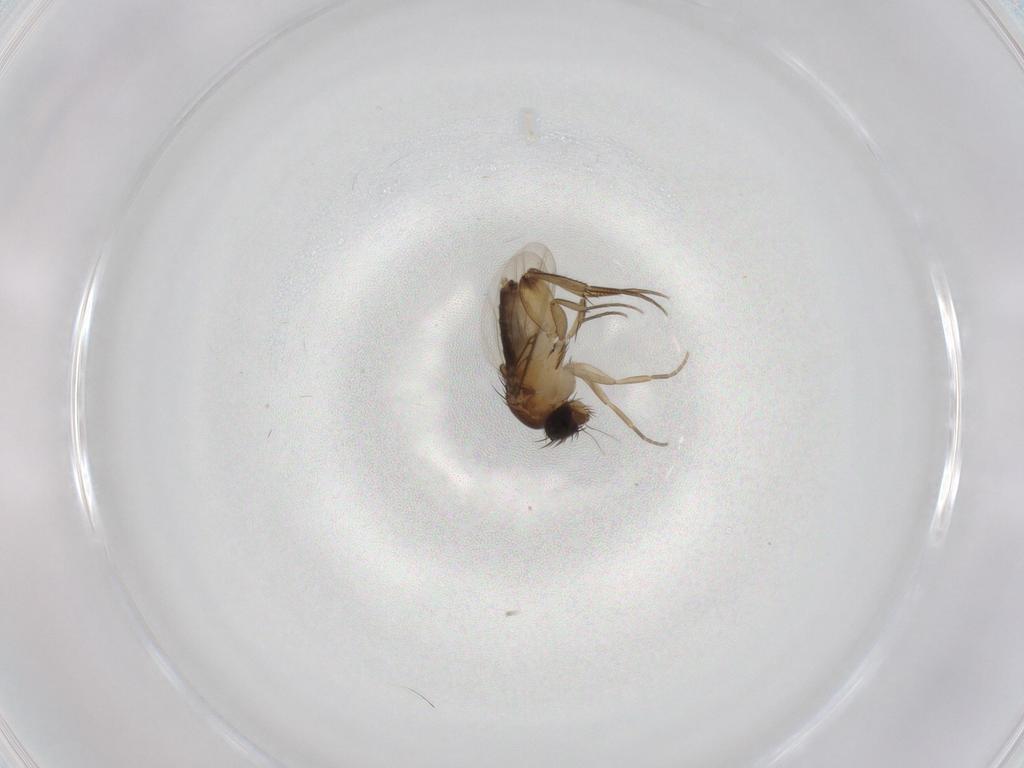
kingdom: Animalia
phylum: Arthropoda
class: Insecta
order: Diptera
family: Phoridae
